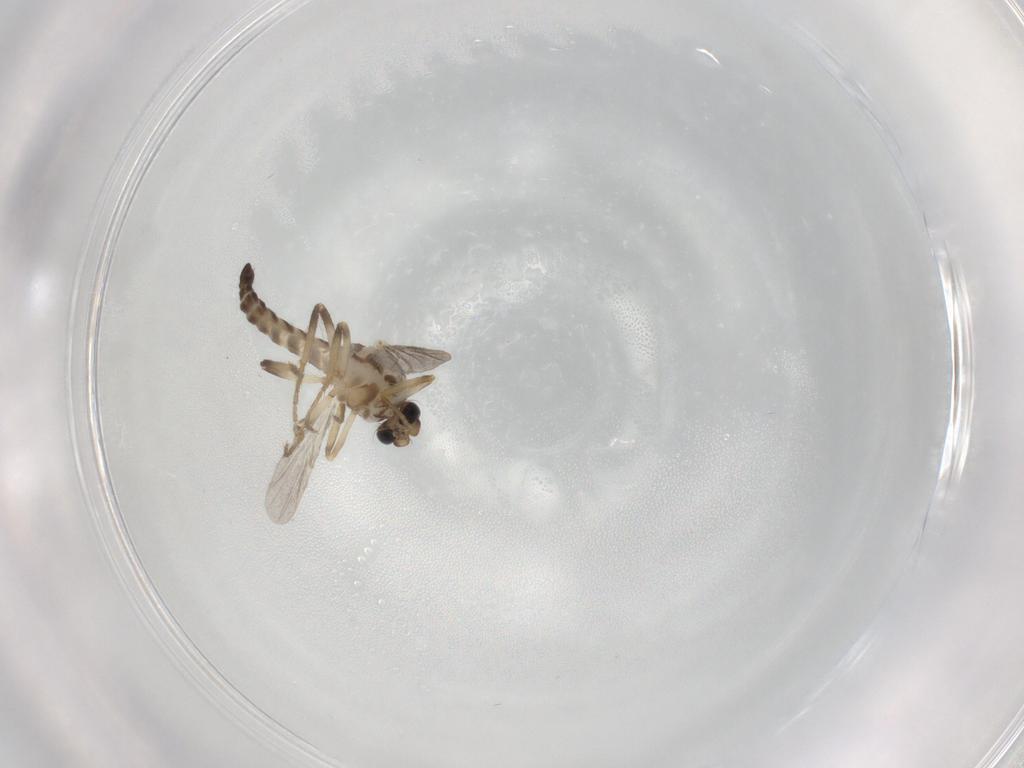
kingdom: Animalia
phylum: Arthropoda
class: Insecta
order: Diptera
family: Ceratopogonidae
